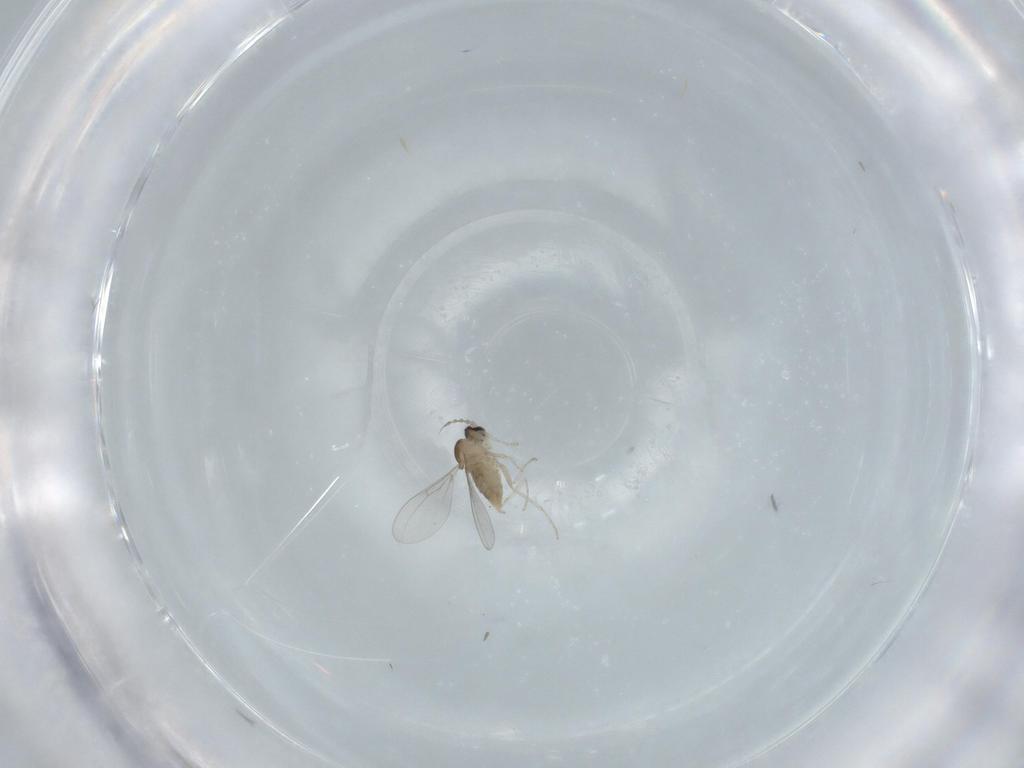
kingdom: Animalia
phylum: Arthropoda
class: Insecta
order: Diptera
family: Cecidomyiidae
